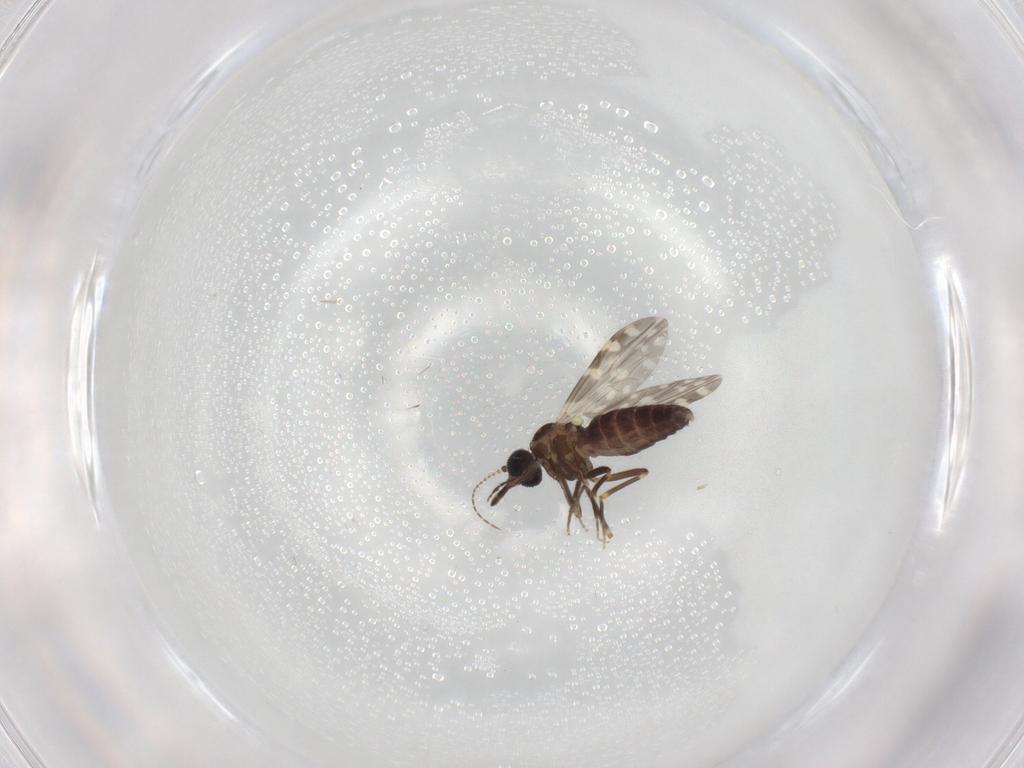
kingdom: Animalia
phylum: Arthropoda
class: Insecta
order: Diptera
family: Ceratopogonidae
